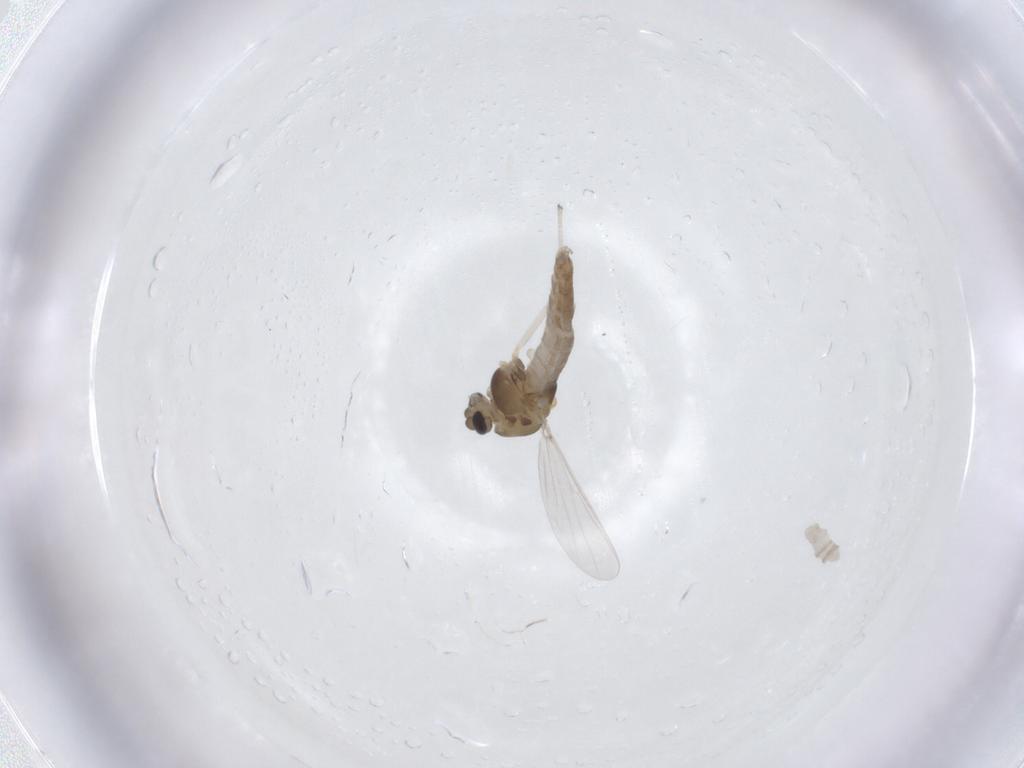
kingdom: Animalia
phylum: Arthropoda
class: Insecta
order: Diptera
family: Chironomidae
